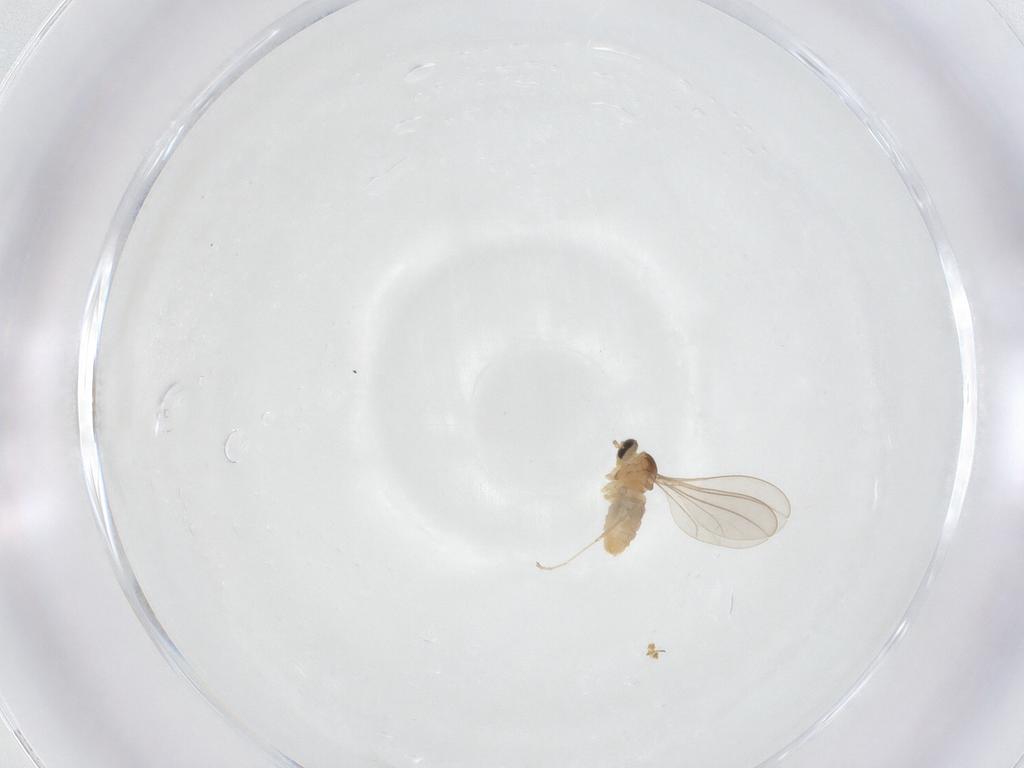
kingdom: Animalia
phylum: Arthropoda
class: Insecta
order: Diptera
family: Cecidomyiidae
